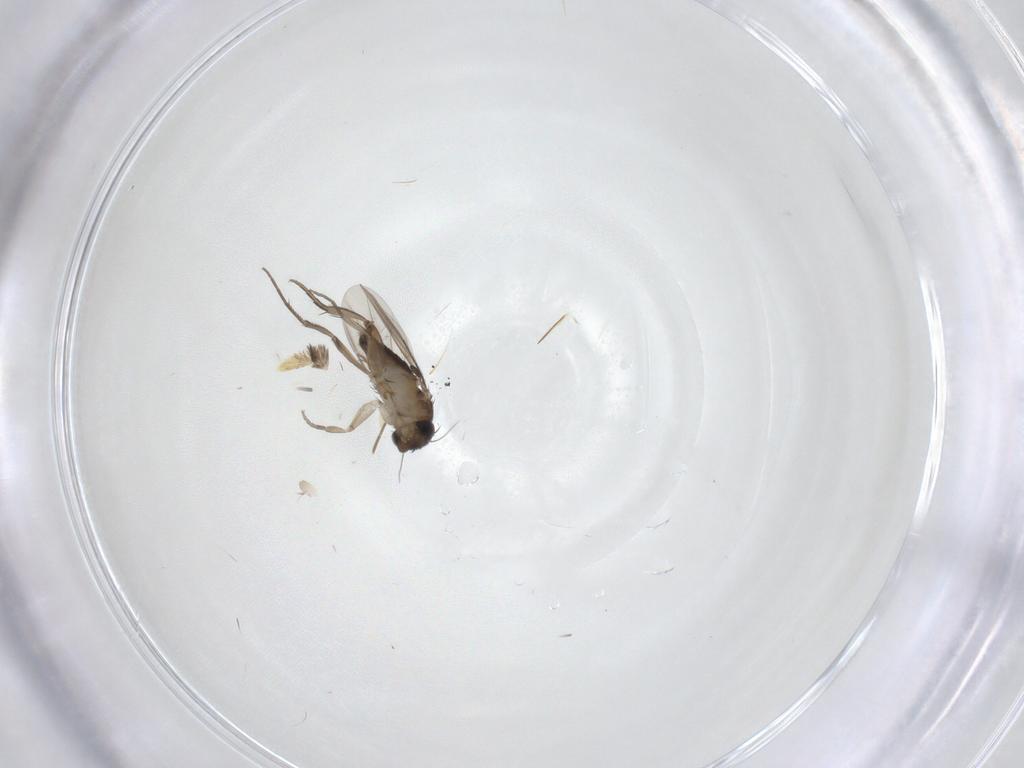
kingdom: Animalia
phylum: Arthropoda
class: Insecta
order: Diptera
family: Phoridae
